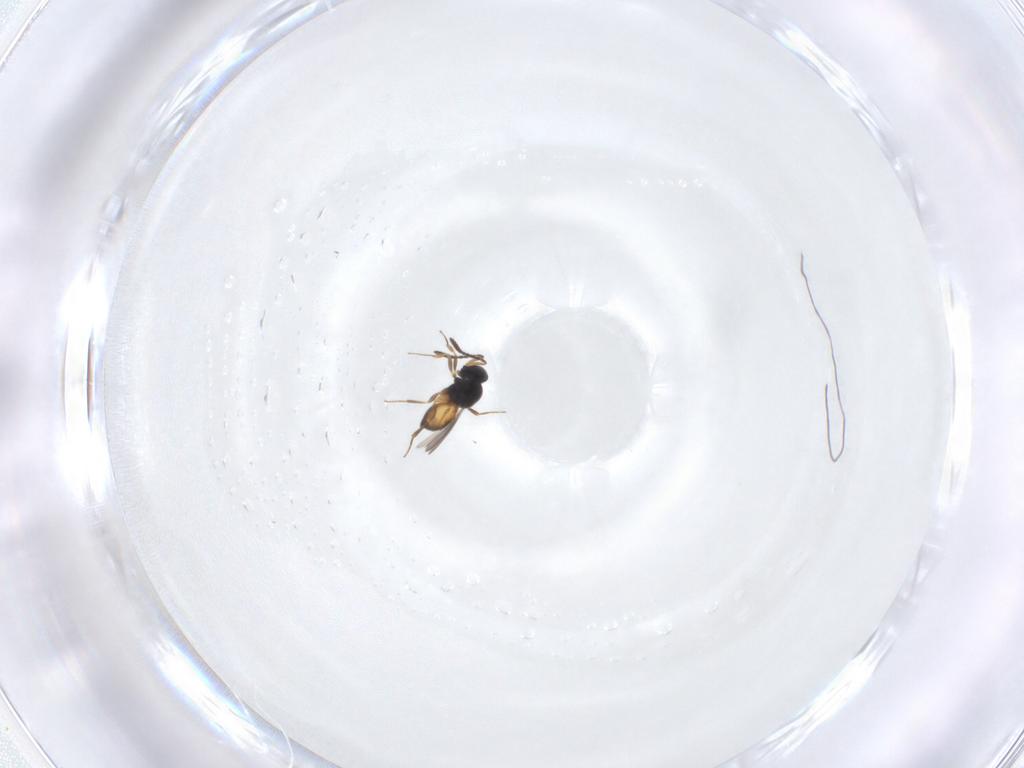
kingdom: Animalia
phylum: Arthropoda
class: Insecta
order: Hymenoptera
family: Scelionidae
